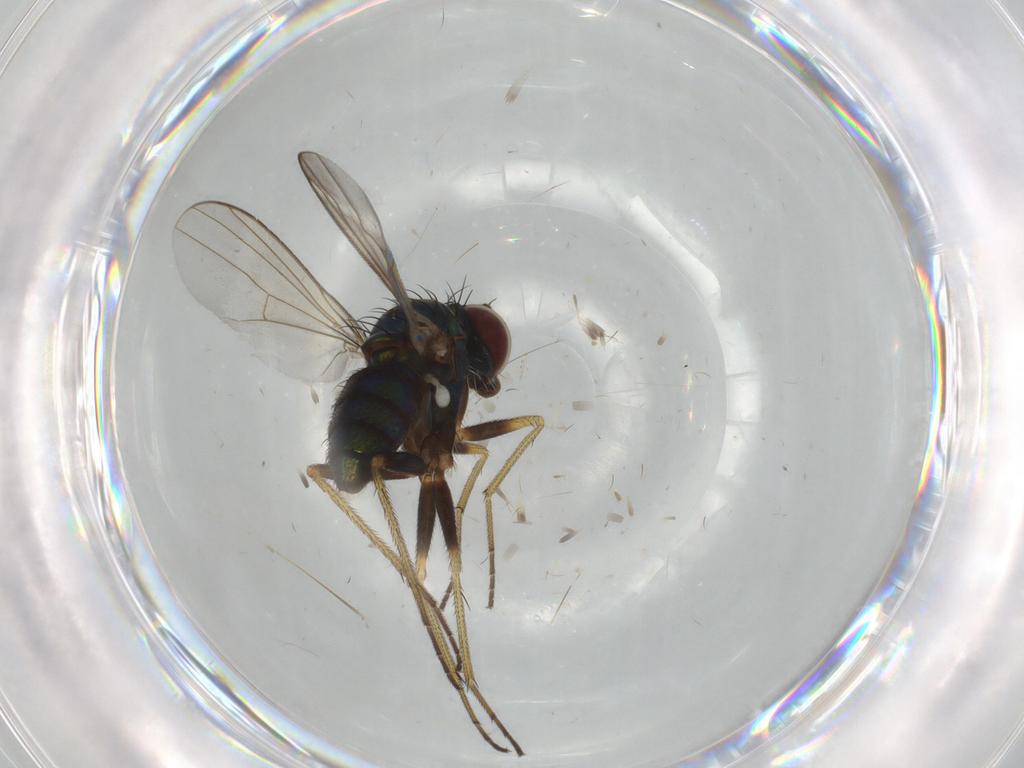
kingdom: Animalia
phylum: Arthropoda
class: Insecta
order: Diptera
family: Dolichopodidae
